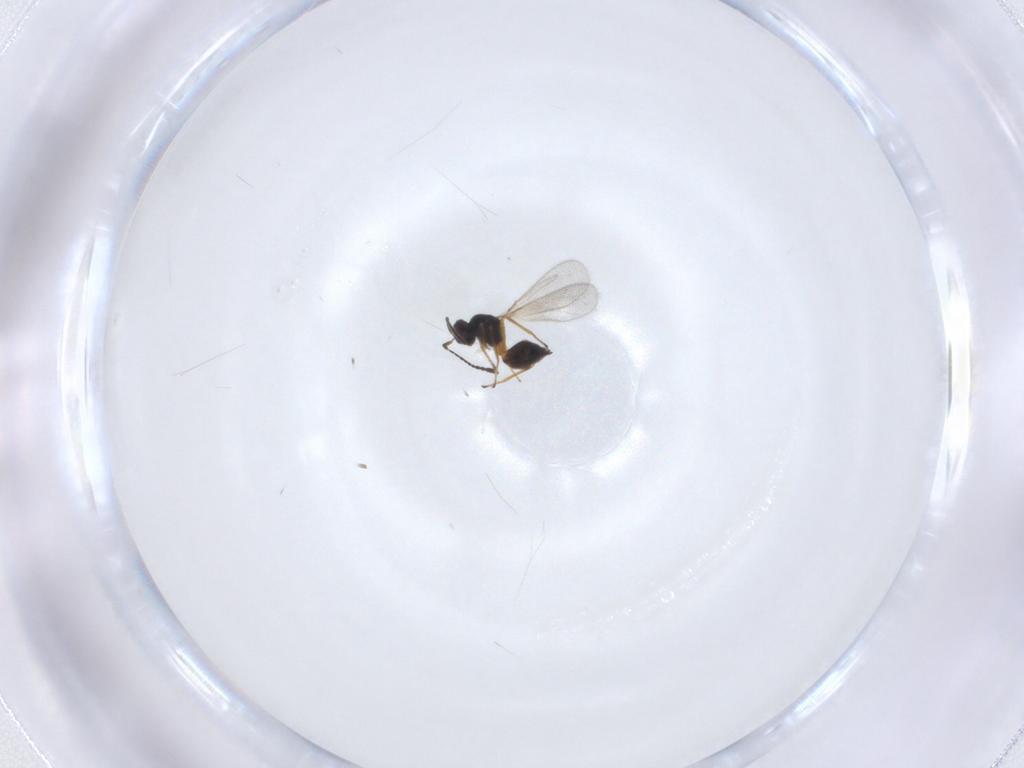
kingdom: Animalia
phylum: Arthropoda
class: Insecta
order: Hymenoptera
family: Mymaridae
